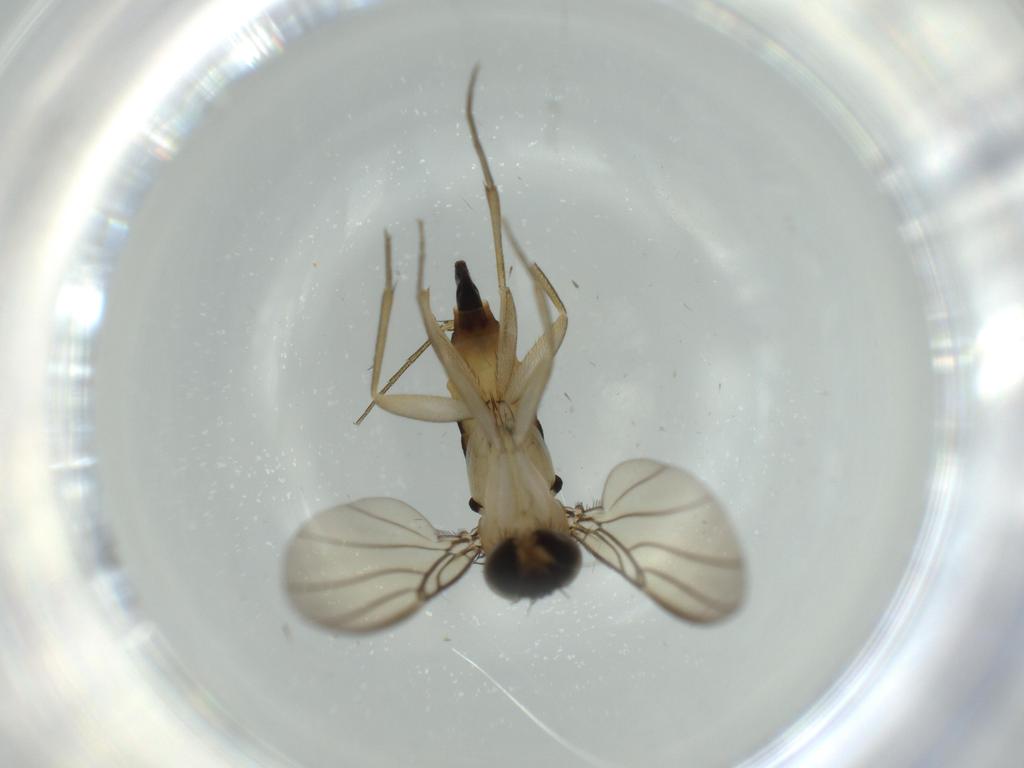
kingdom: Animalia
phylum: Arthropoda
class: Insecta
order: Diptera
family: Phoridae
